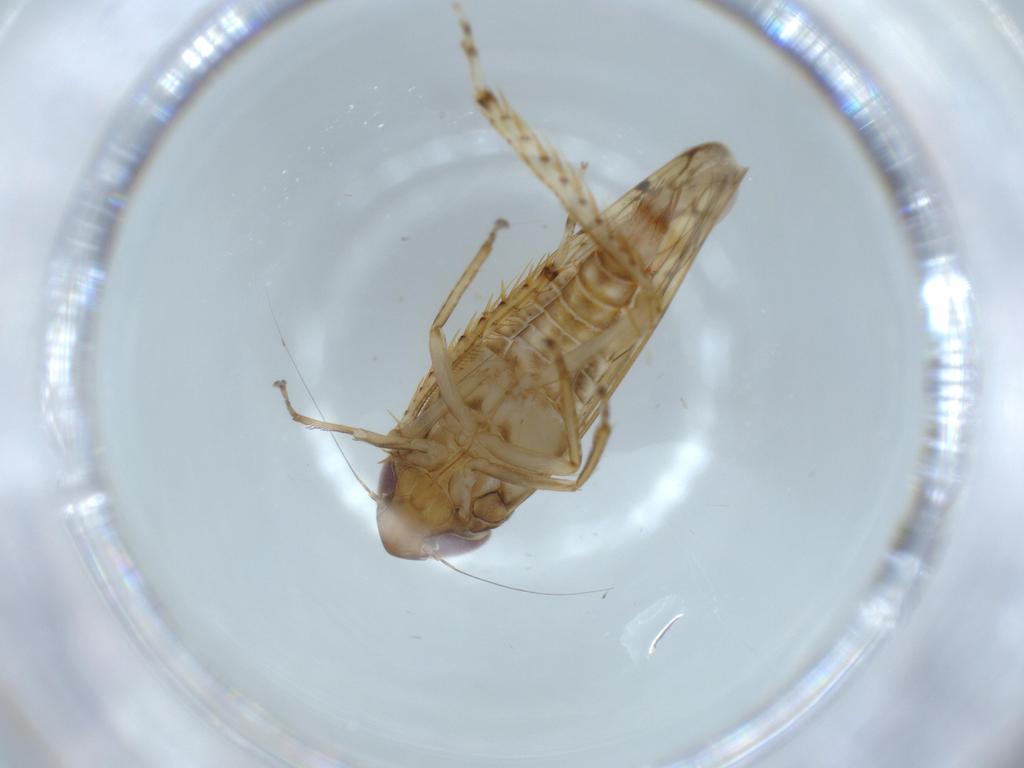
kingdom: Animalia
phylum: Arthropoda
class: Insecta
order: Hemiptera
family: Cicadellidae
